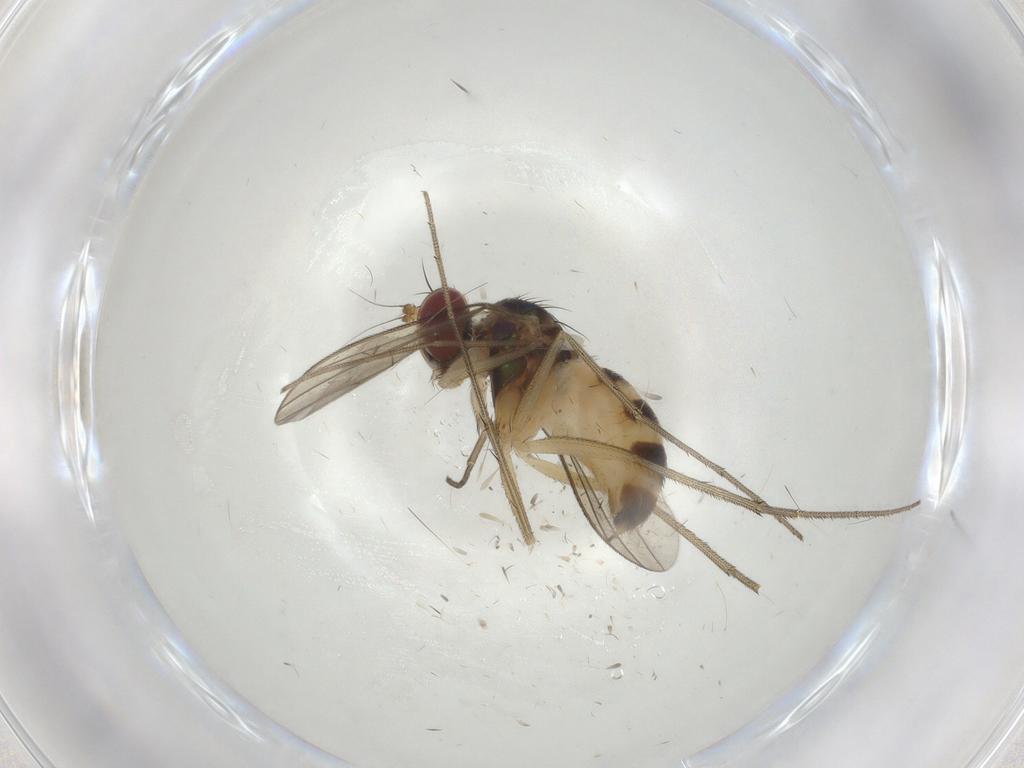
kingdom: Animalia
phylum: Arthropoda
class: Insecta
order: Diptera
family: Dolichopodidae
